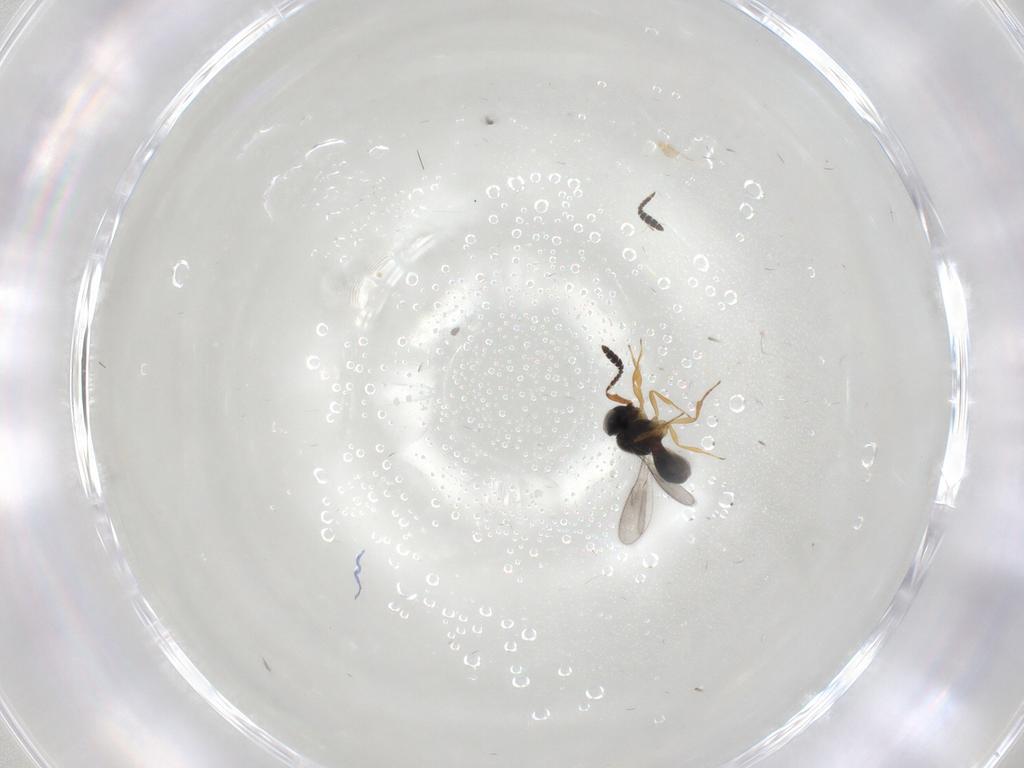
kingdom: Animalia
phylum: Arthropoda
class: Insecta
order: Hymenoptera
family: Scelionidae
